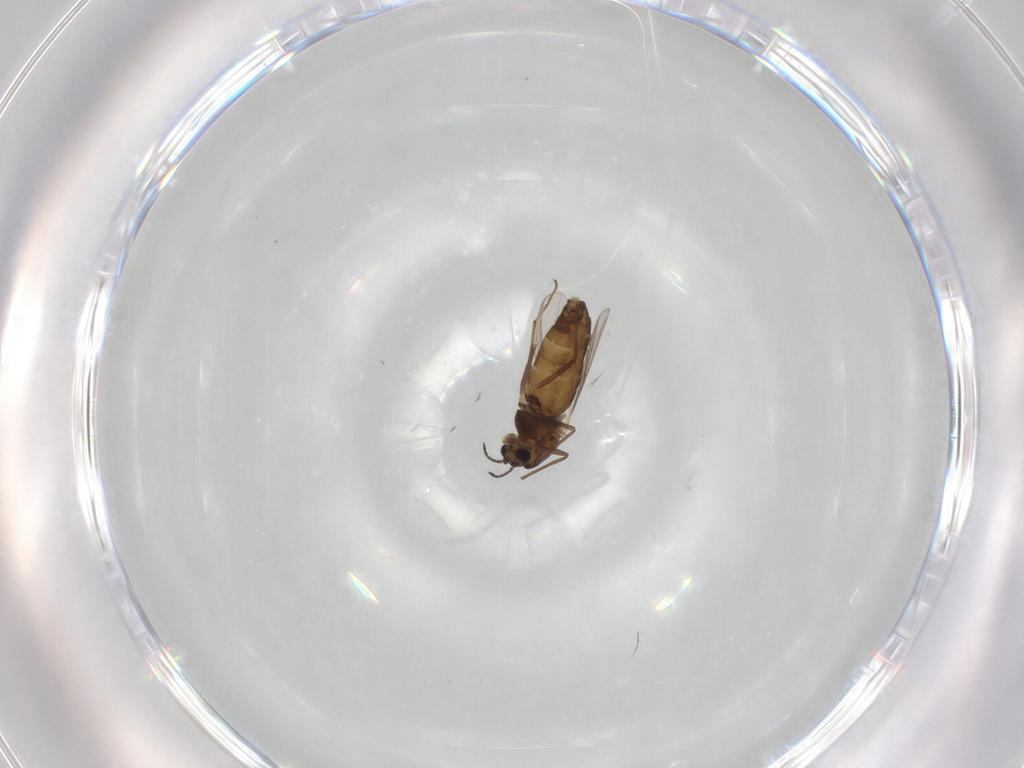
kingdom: Animalia
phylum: Arthropoda
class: Insecta
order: Diptera
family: Chironomidae
